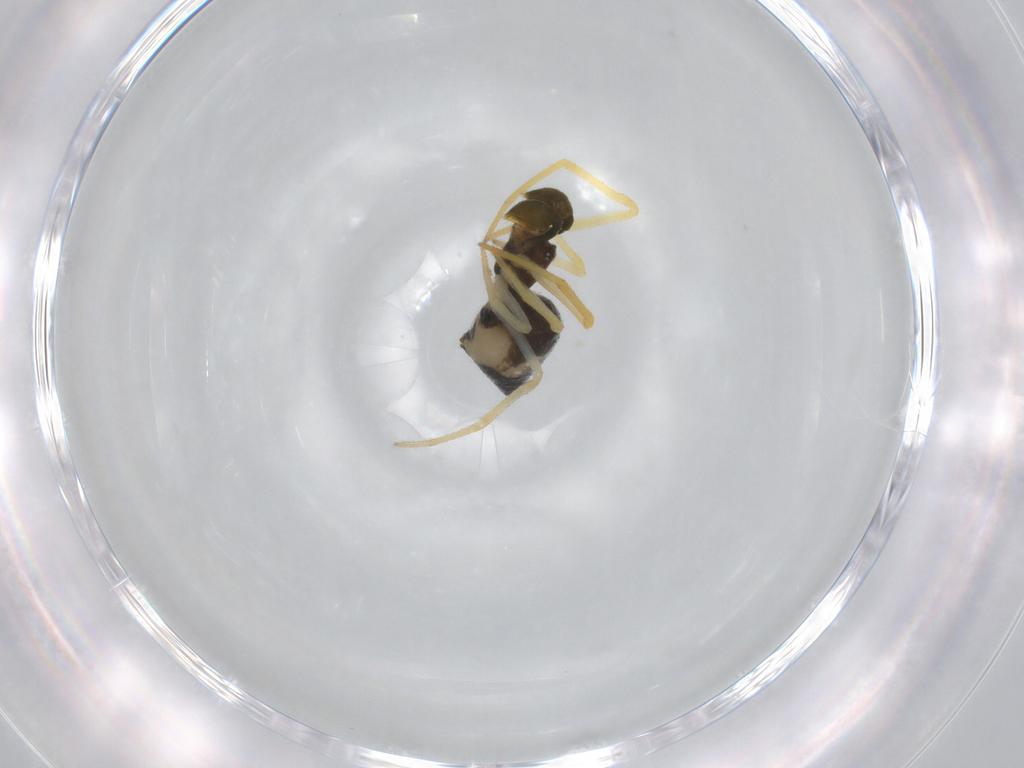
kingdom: Animalia
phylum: Arthropoda
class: Arachnida
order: Araneae
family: Theridiidae
